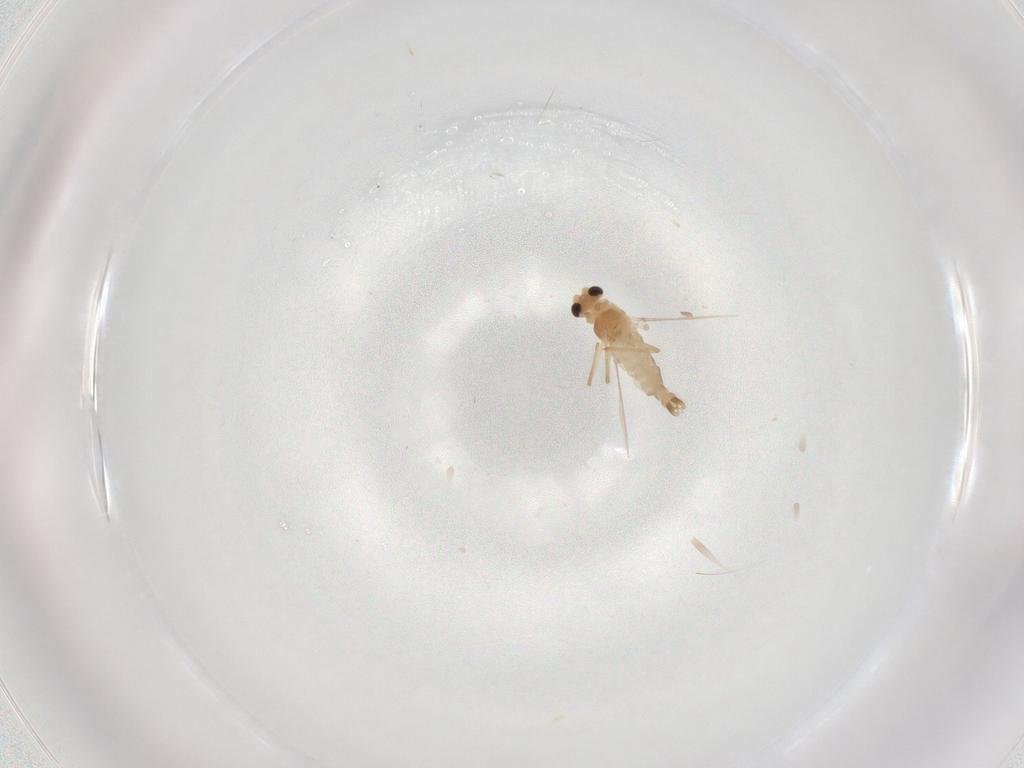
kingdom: Animalia
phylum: Arthropoda
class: Insecta
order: Diptera
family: Chironomidae
